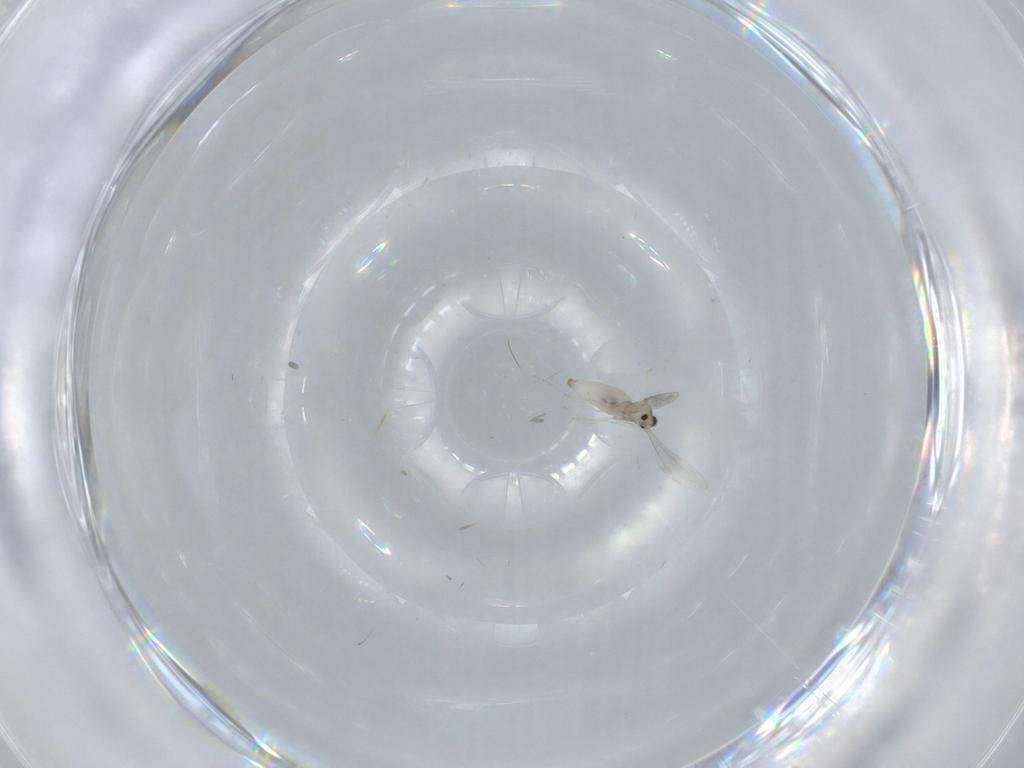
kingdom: Animalia
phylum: Arthropoda
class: Insecta
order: Diptera
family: Cecidomyiidae
